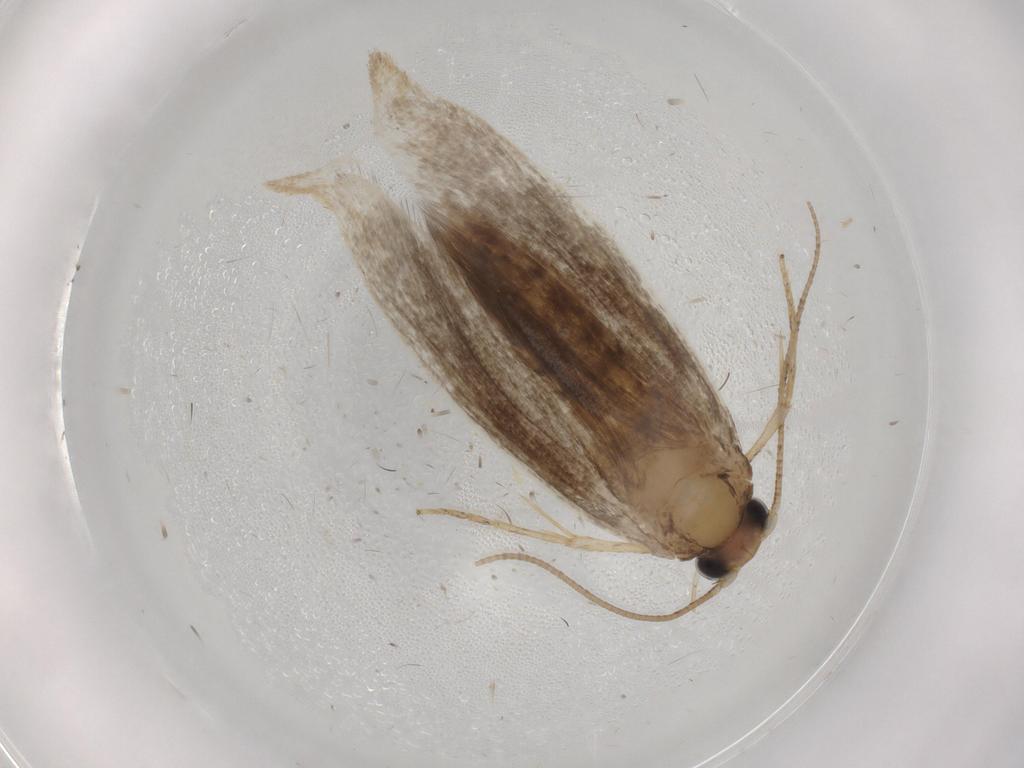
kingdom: Animalia
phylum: Arthropoda
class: Insecta
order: Lepidoptera
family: Tineidae
